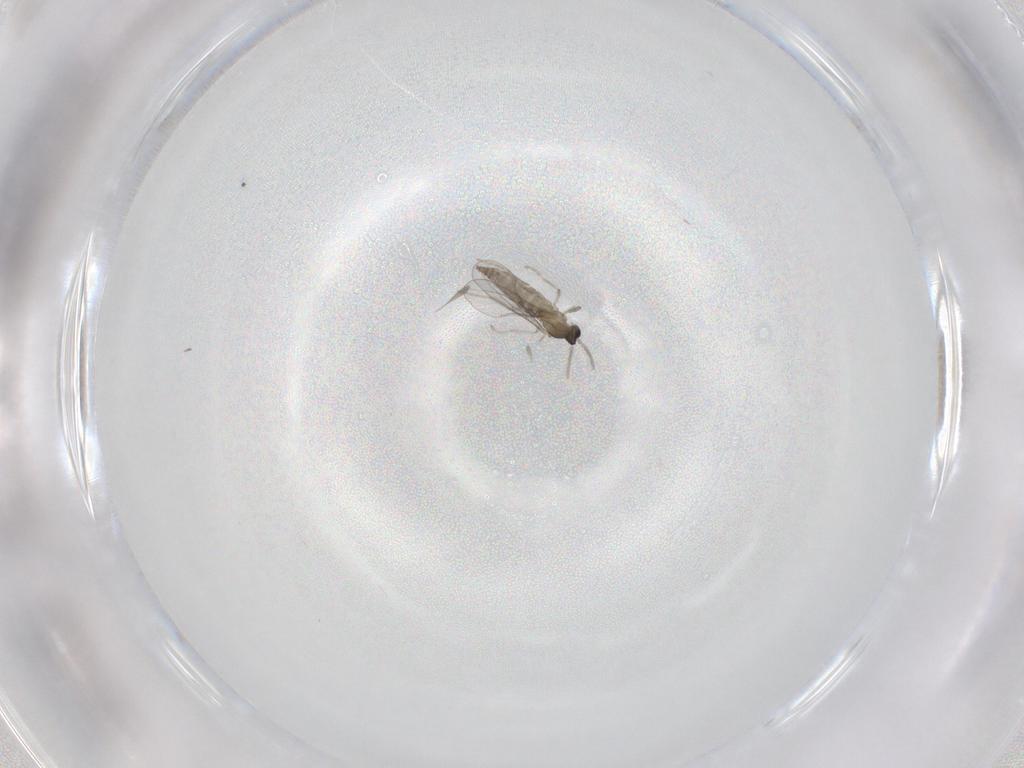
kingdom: Animalia
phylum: Arthropoda
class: Insecta
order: Diptera
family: Cecidomyiidae
